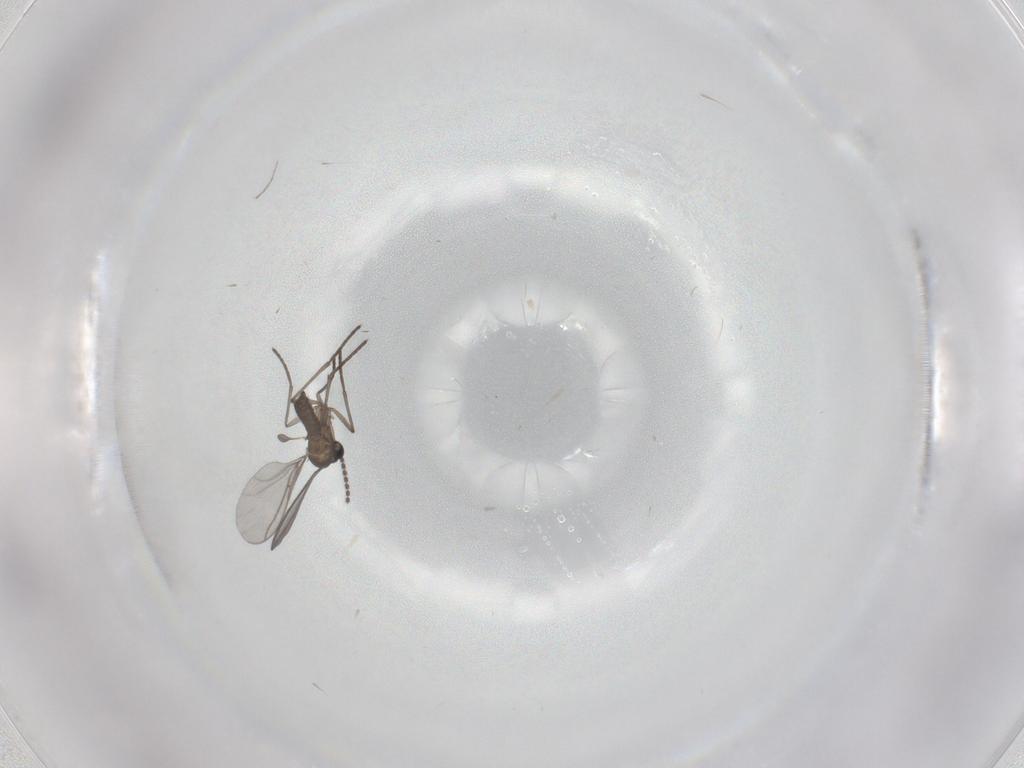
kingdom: Animalia
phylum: Arthropoda
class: Insecta
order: Diptera
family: Cecidomyiidae
